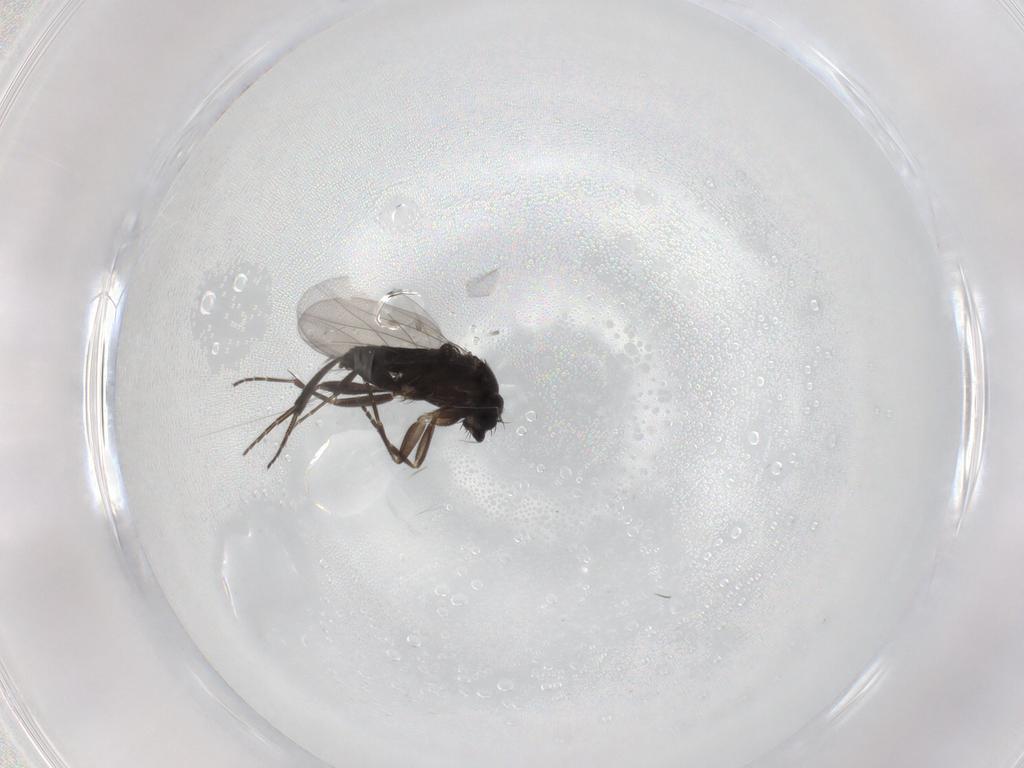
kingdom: Animalia
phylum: Arthropoda
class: Insecta
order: Diptera
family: Phoridae
